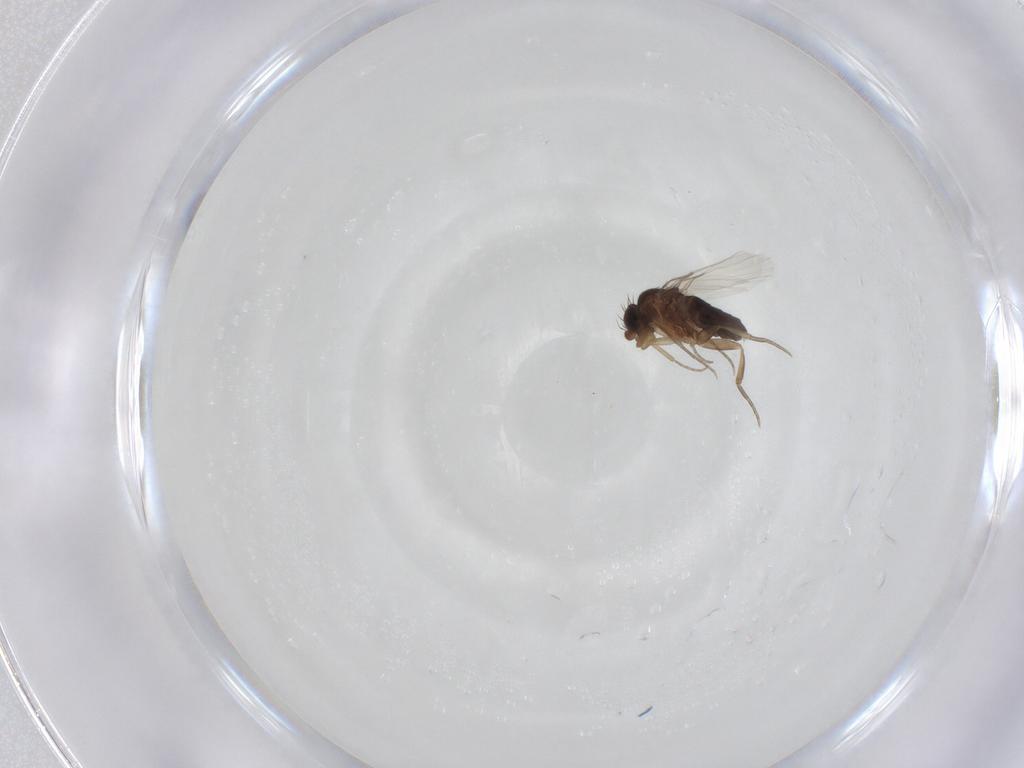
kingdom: Animalia
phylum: Arthropoda
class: Insecta
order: Diptera
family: Phoridae
